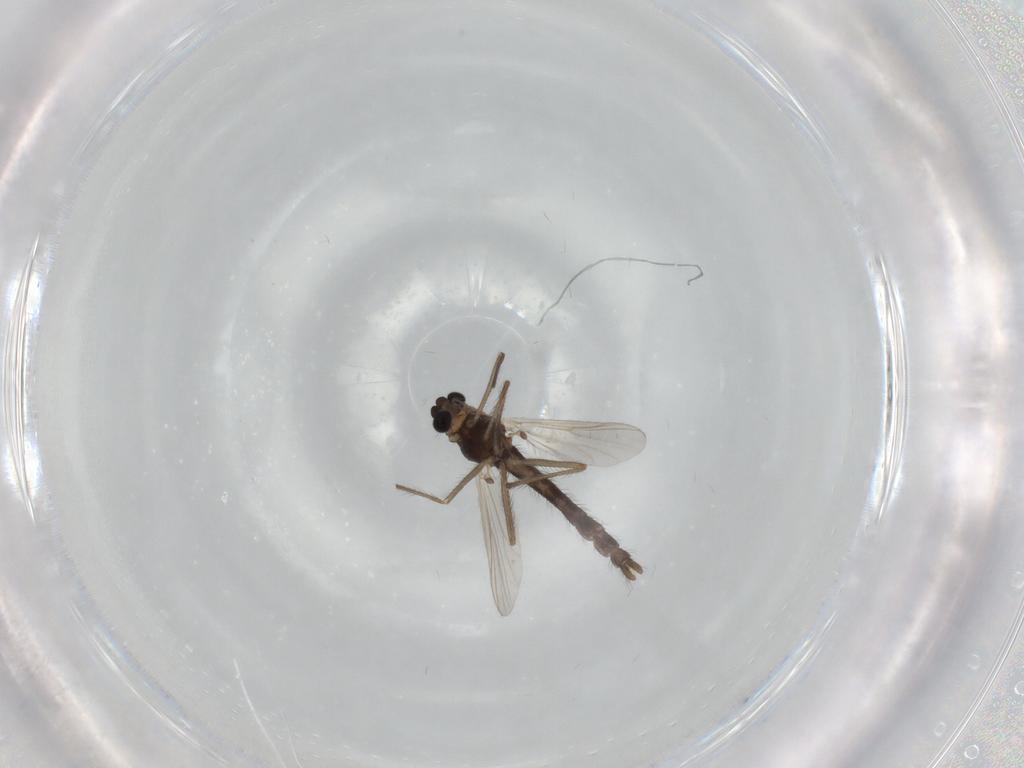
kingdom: Animalia
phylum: Arthropoda
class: Insecta
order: Diptera
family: Chironomidae
